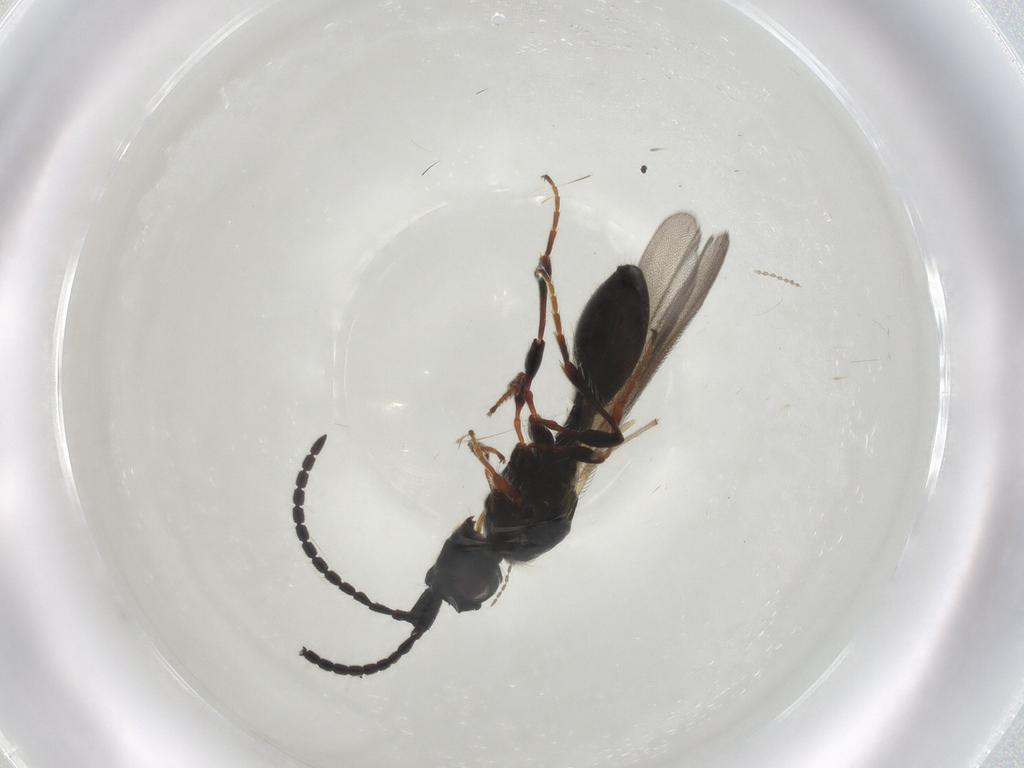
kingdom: Animalia
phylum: Arthropoda
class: Insecta
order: Hymenoptera
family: Diapriidae
